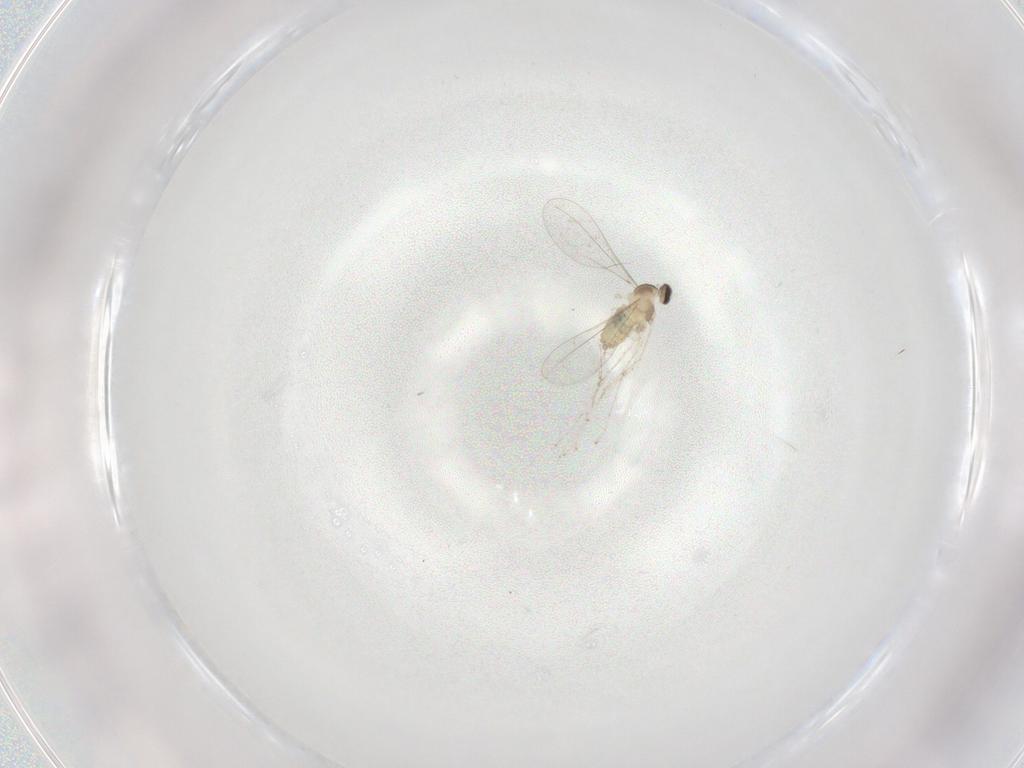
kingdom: Animalia
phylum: Arthropoda
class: Insecta
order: Diptera
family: Cecidomyiidae
